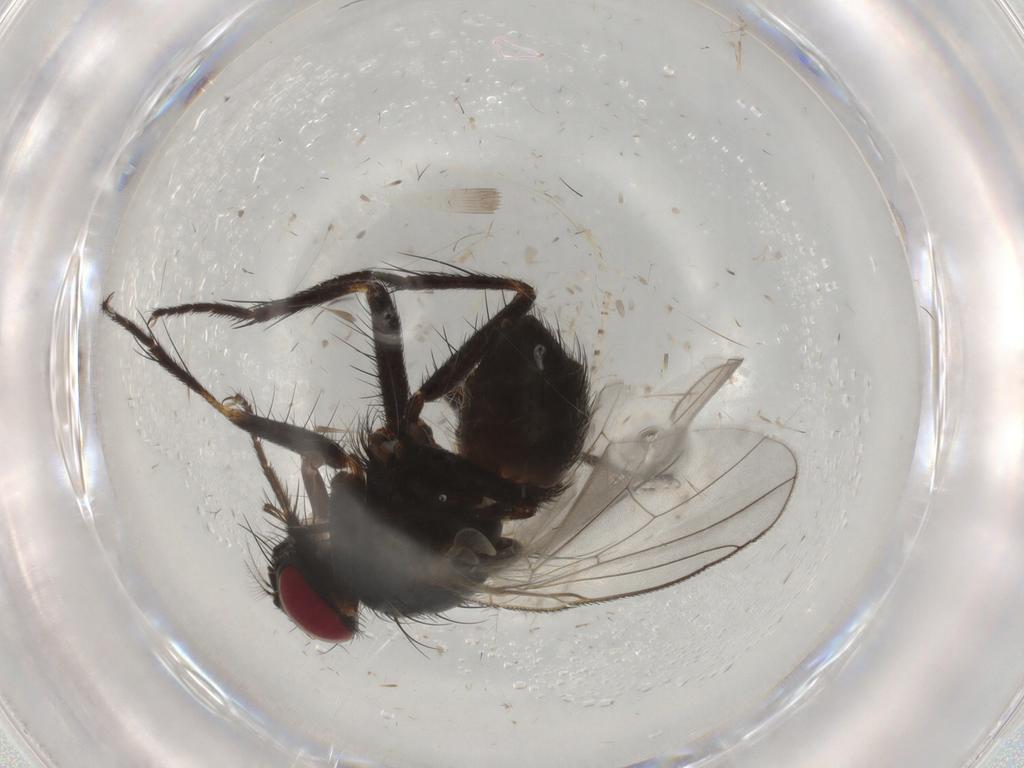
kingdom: Animalia
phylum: Arthropoda
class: Insecta
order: Diptera
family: Muscidae
